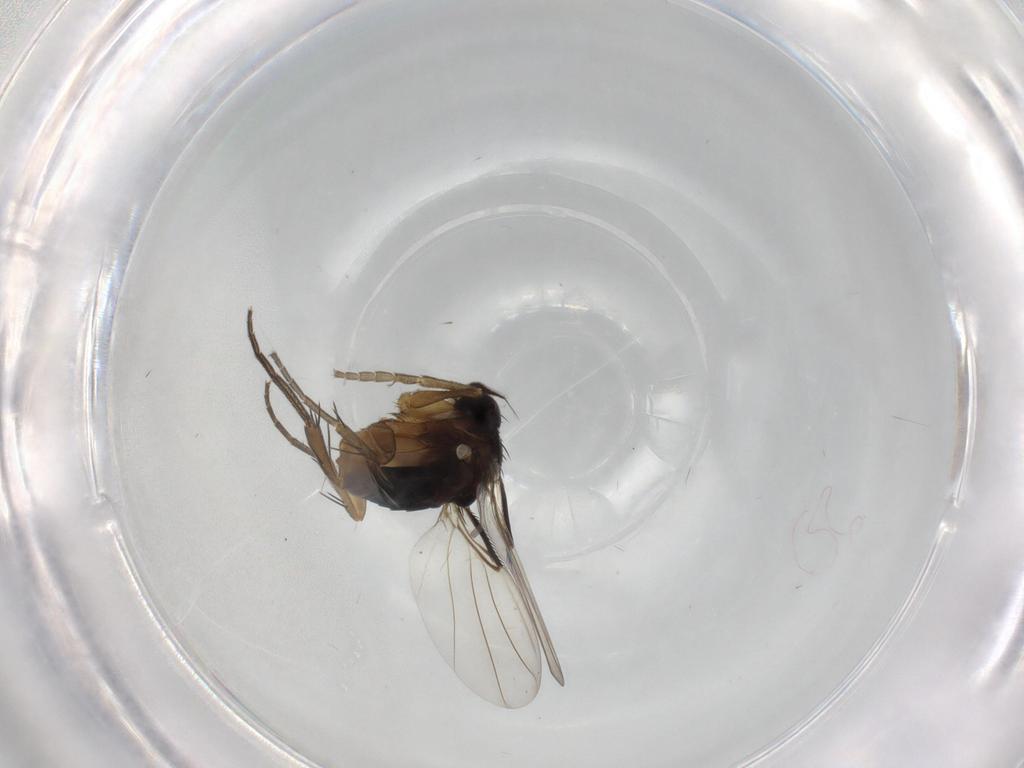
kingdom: Animalia
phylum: Arthropoda
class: Insecta
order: Diptera
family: Phoridae
